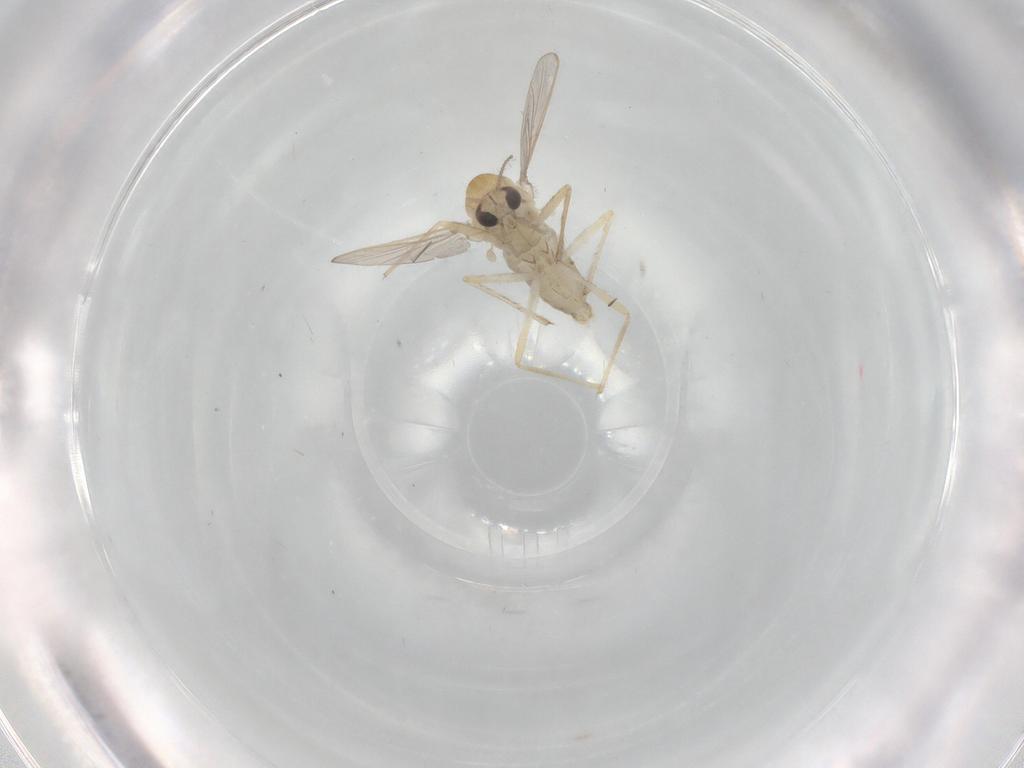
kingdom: Animalia
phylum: Arthropoda
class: Insecta
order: Diptera
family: Chironomidae
